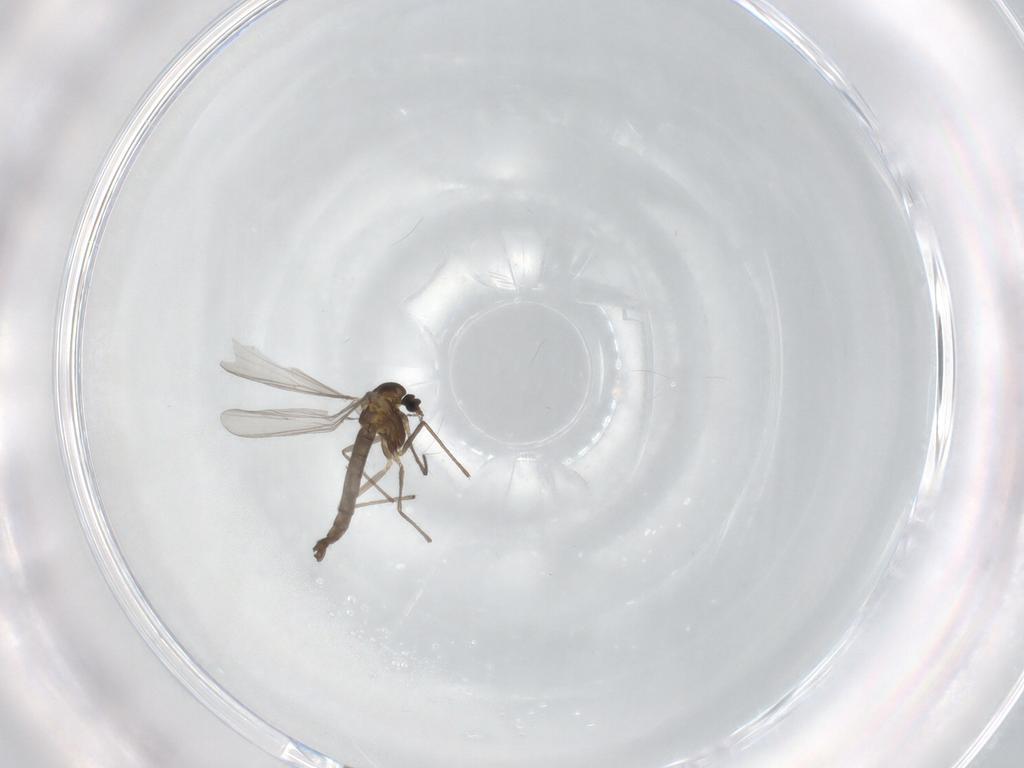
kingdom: Animalia
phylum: Arthropoda
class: Insecta
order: Diptera
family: Chironomidae
